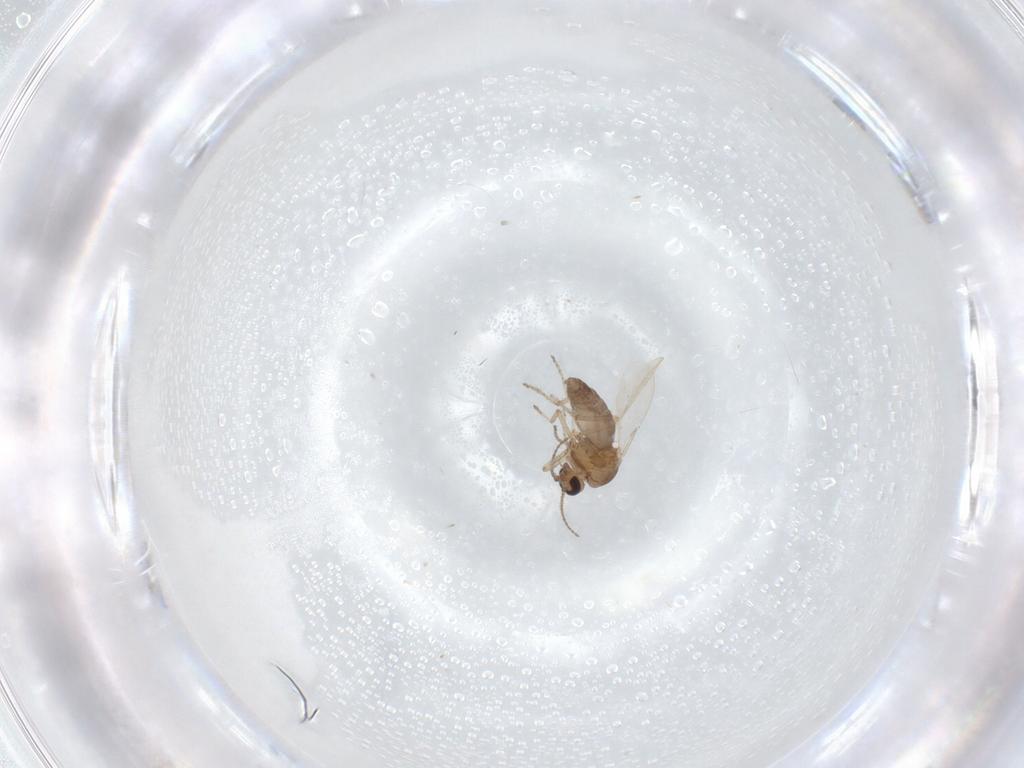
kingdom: Animalia
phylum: Arthropoda
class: Insecta
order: Diptera
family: Ceratopogonidae
